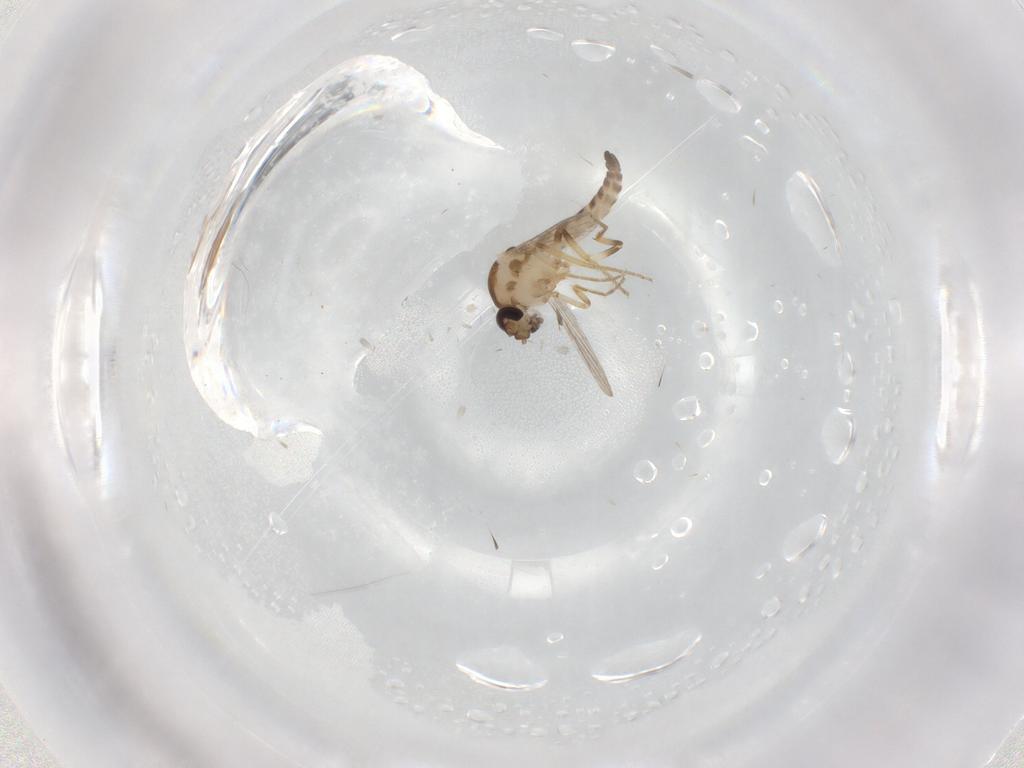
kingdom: Animalia
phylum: Arthropoda
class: Insecta
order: Diptera
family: Ceratopogonidae
